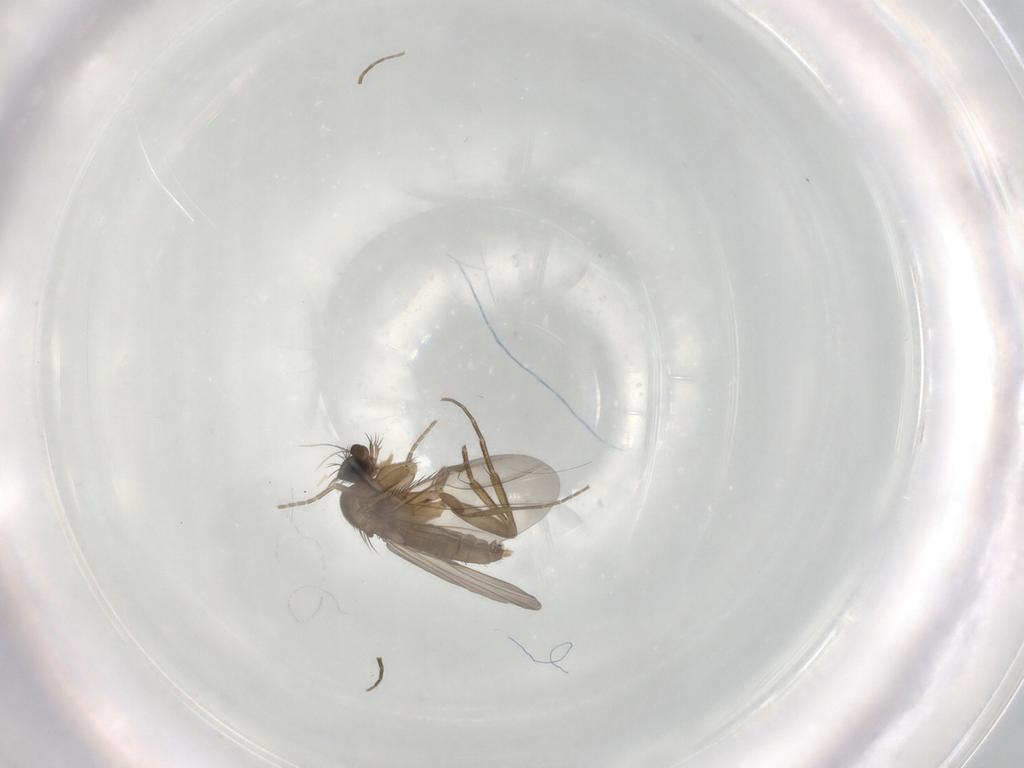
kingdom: Animalia
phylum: Arthropoda
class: Insecta
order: Diptera
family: Phoridae
